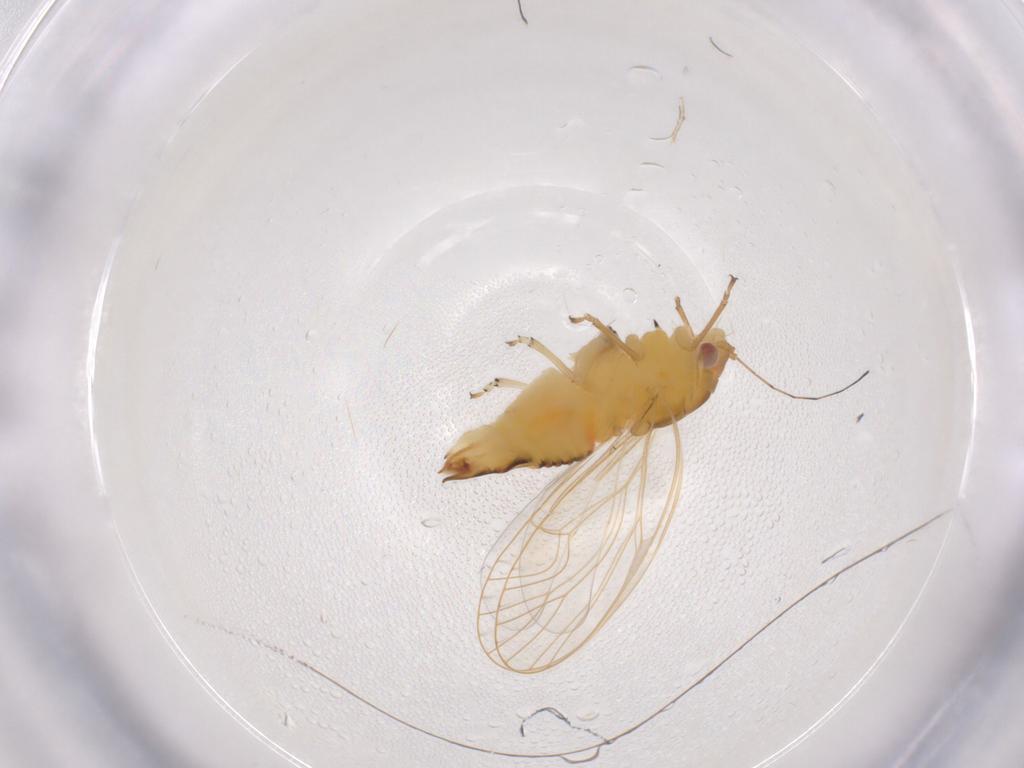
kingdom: Animalia
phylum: Arthropoda
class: Insecta
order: Hemiptera
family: Psyllidae
